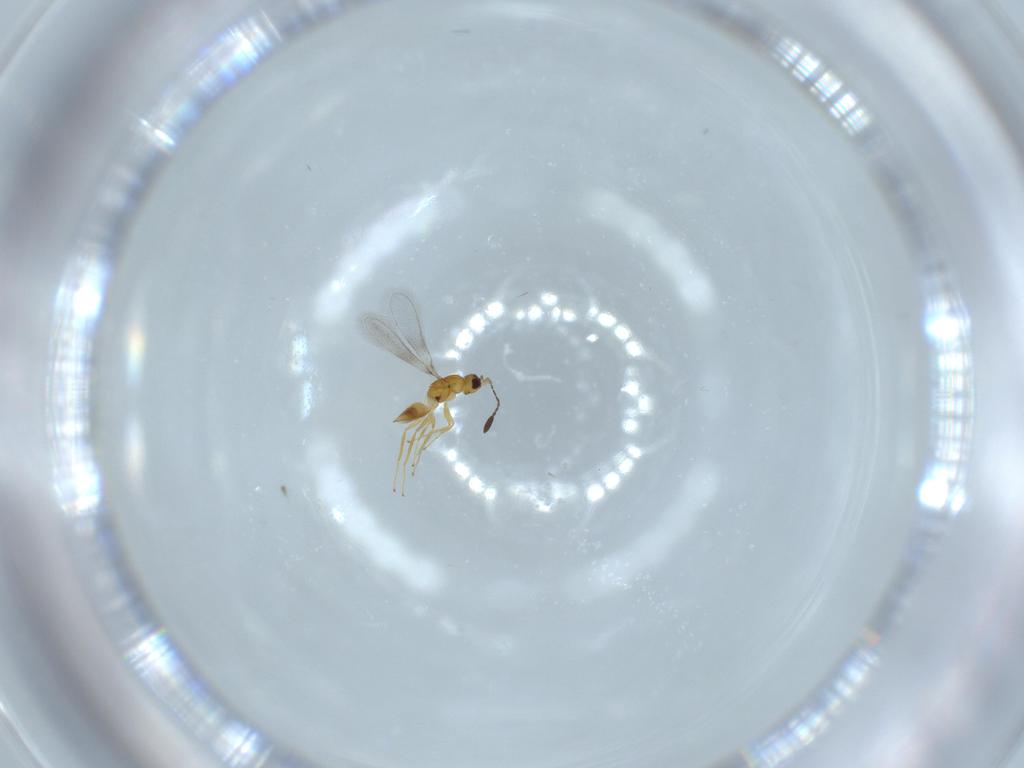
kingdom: Animalia
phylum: Arthropoda
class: Insecta
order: Hymenoptera
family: Mymaridae
